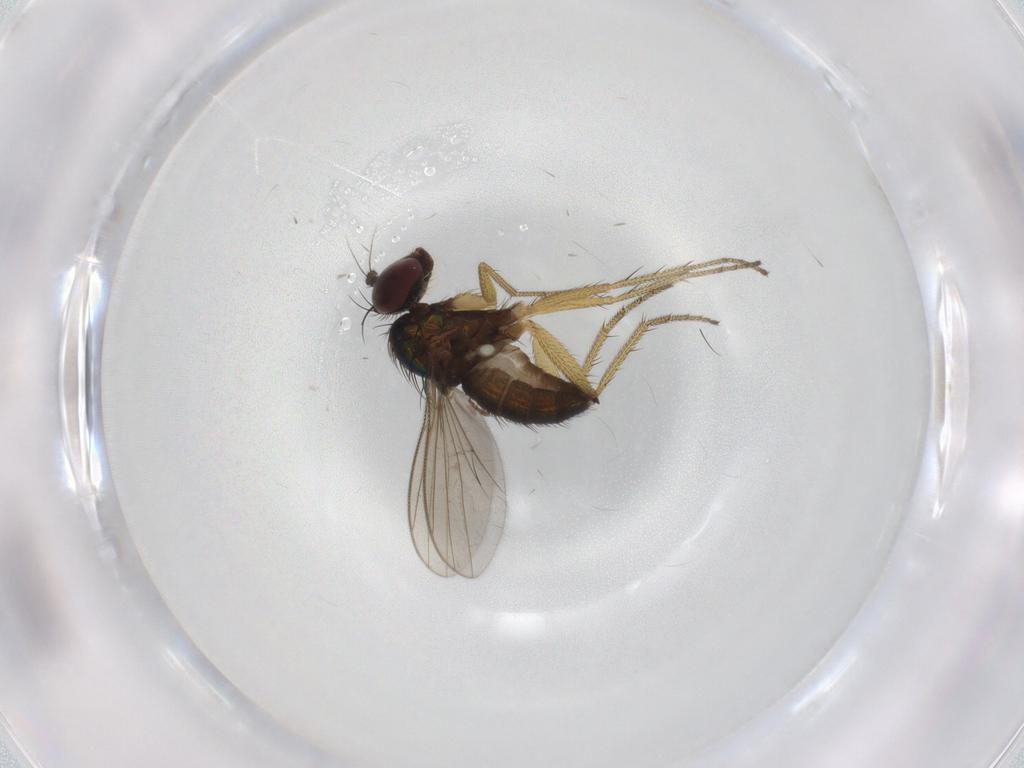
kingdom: Animalia
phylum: Arthropoda
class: Insecta
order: Diptera
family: Dolichopodidae
